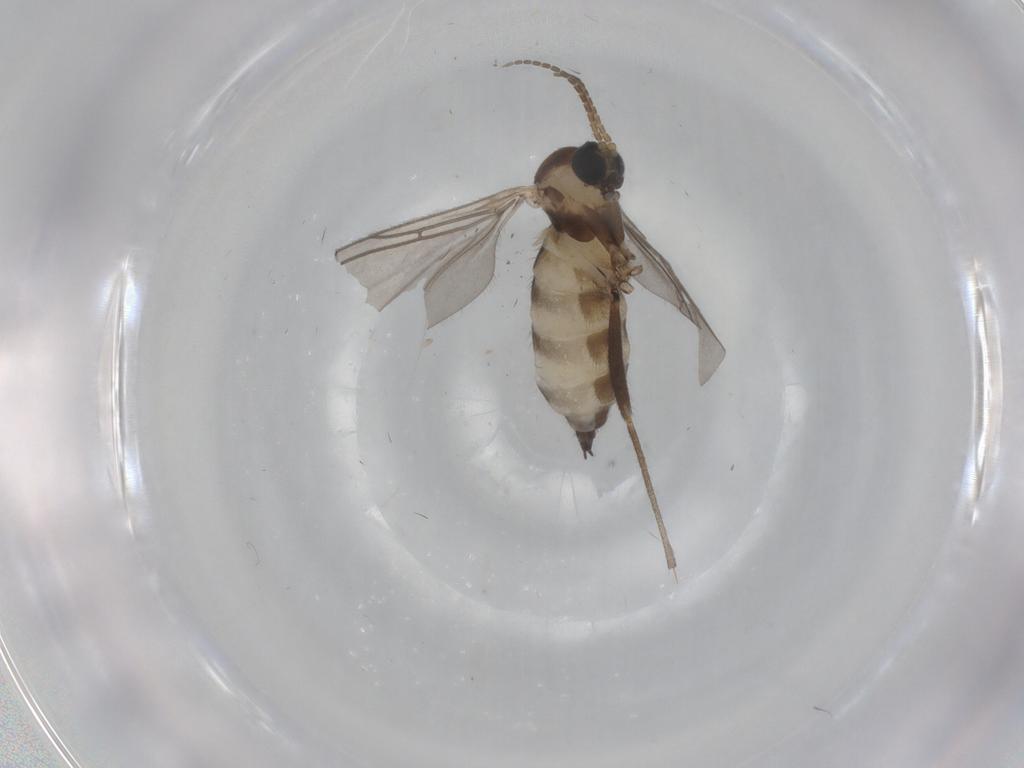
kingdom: Animalia
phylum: Arthropoda
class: Insecta
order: Diptera
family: Sciaridae
